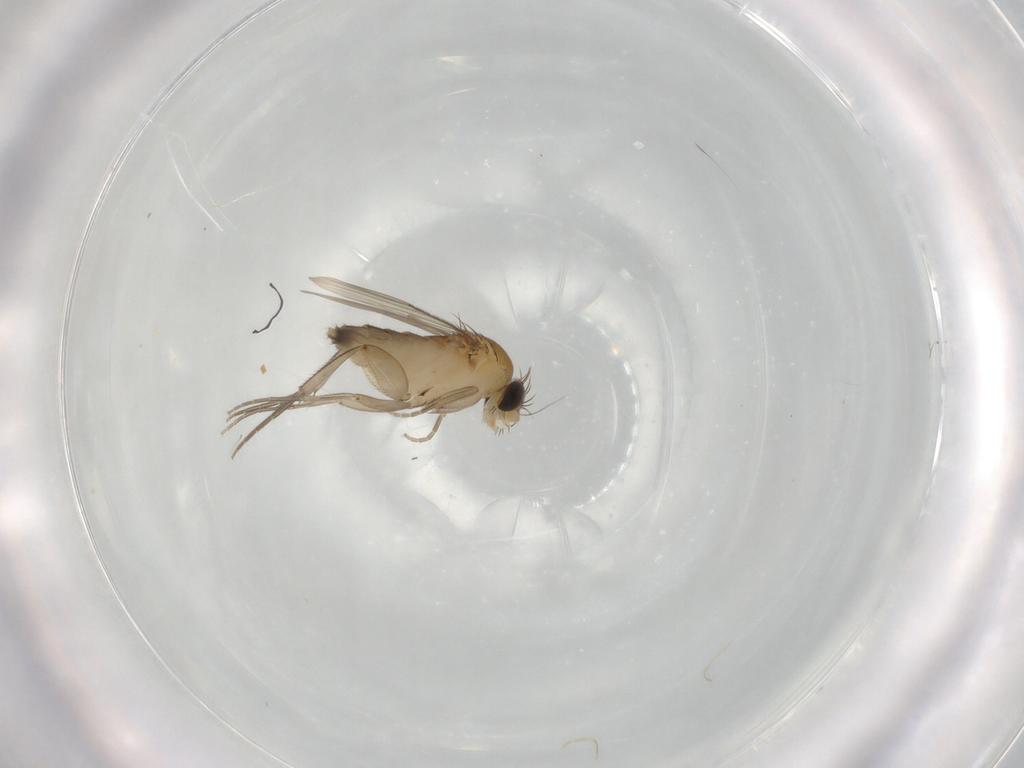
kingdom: Animalia
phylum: Arthropoda
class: Insecta
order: Diptera
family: Phoridae
